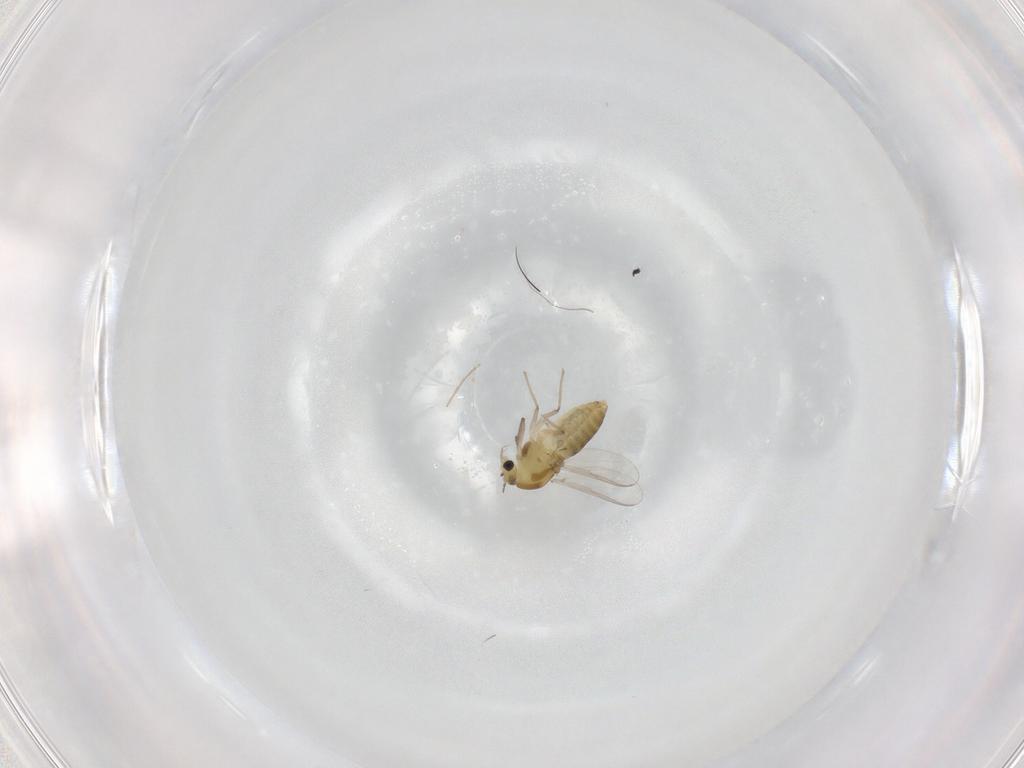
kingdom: Animalia
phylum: Arthropoda
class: Insecta
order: Diptera
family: Chironomidae
